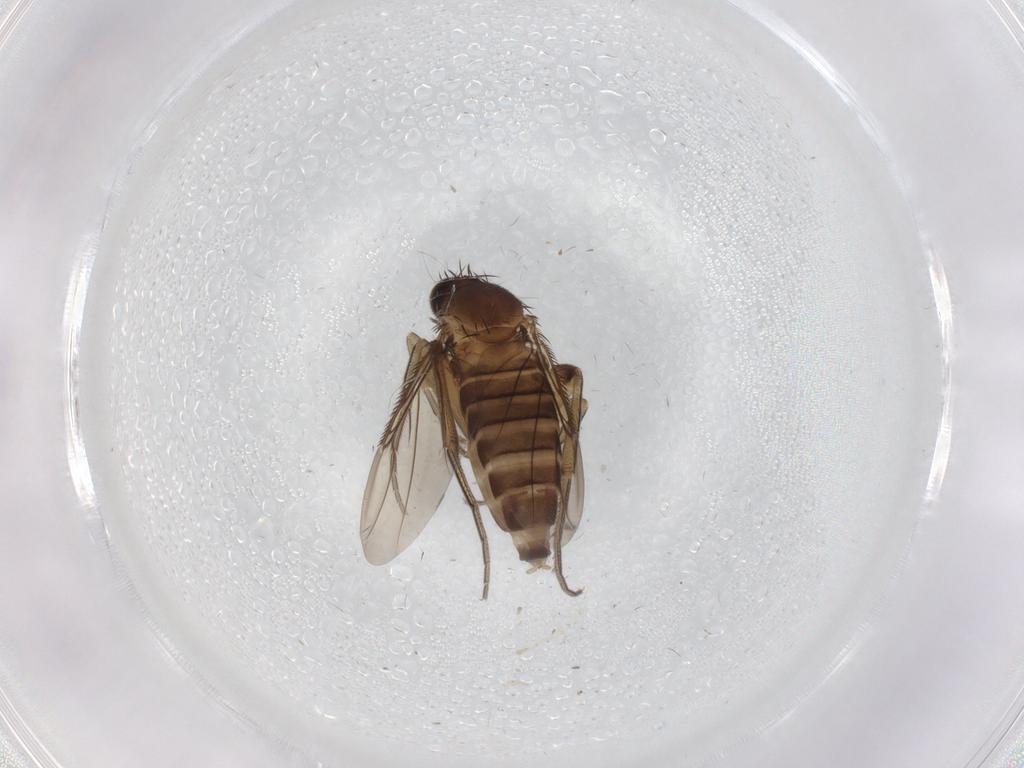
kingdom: Animalia
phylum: Arthropoda
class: Insecta
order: Diptera
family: Phoridae
